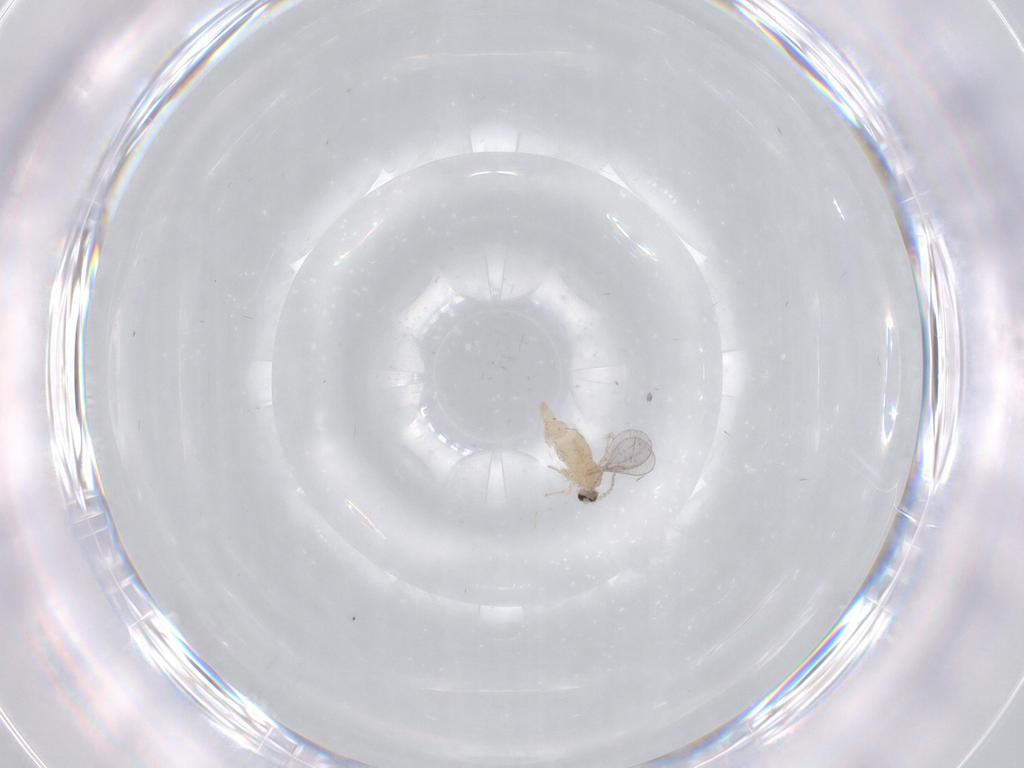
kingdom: Animalia
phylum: Arthropoda
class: Insecta
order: Diptera
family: Cecidomyiidae
